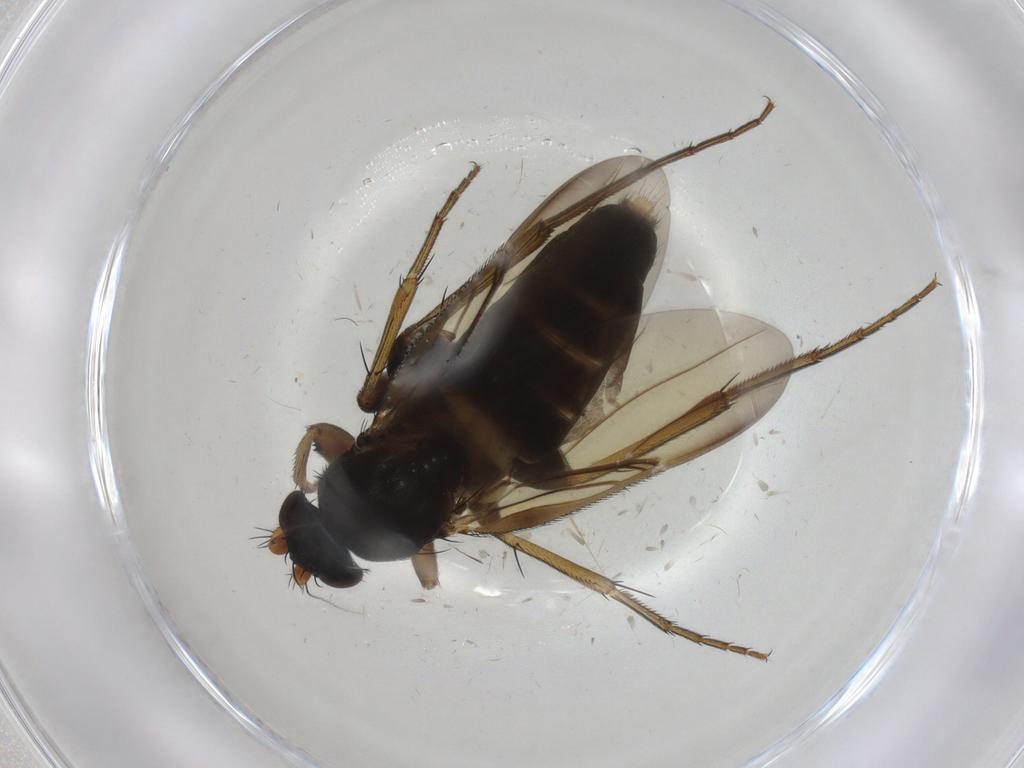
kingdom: Animalia
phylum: Arthropoda
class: Insecta
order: Diptera
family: Phoridae
